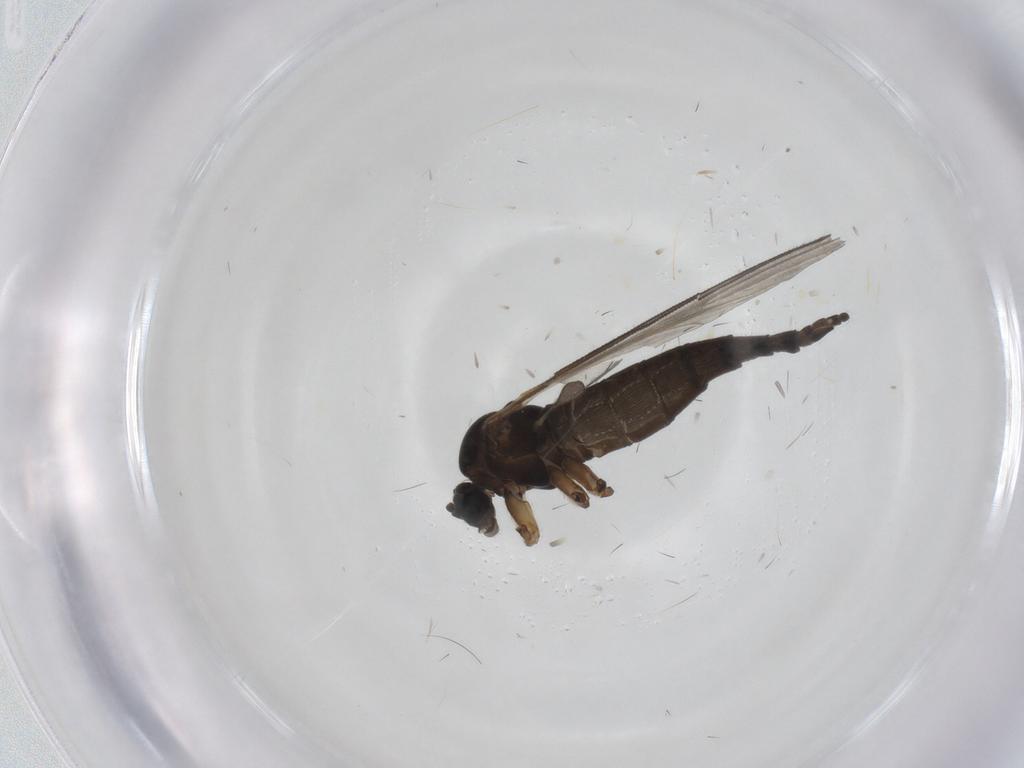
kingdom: Animalia
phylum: Arthropoda
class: Insecta
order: Diptera
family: Sciaridae
